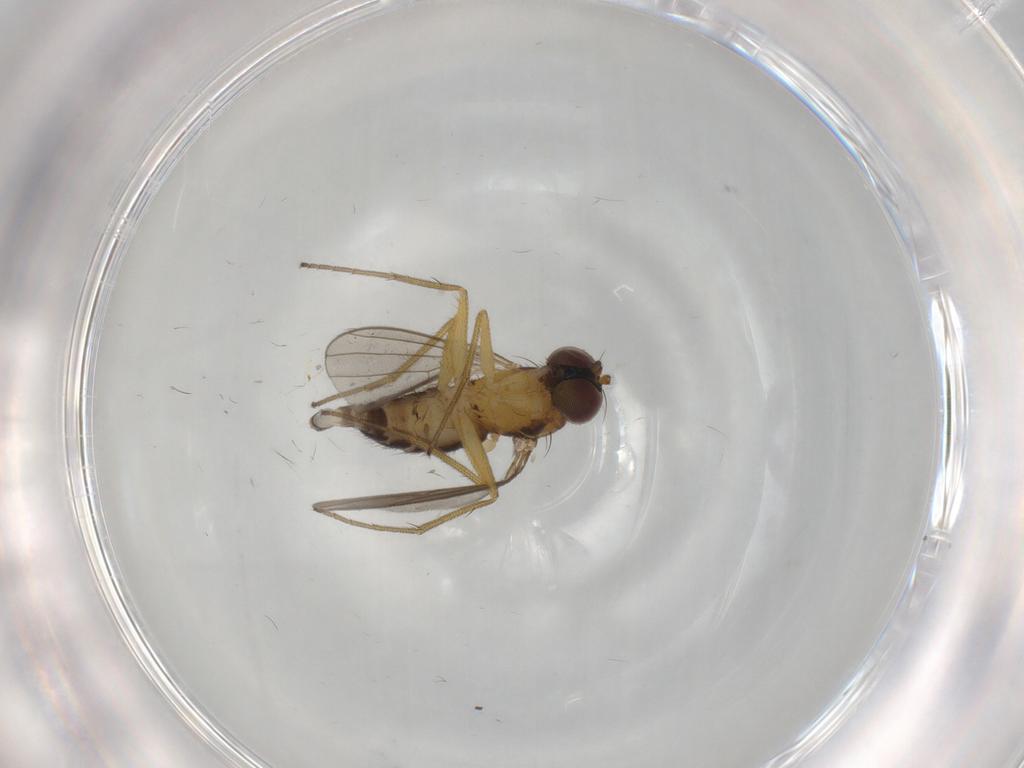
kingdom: Animalia
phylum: Arthropoda
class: Insecta
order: Diptera
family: Dolichopodidae
